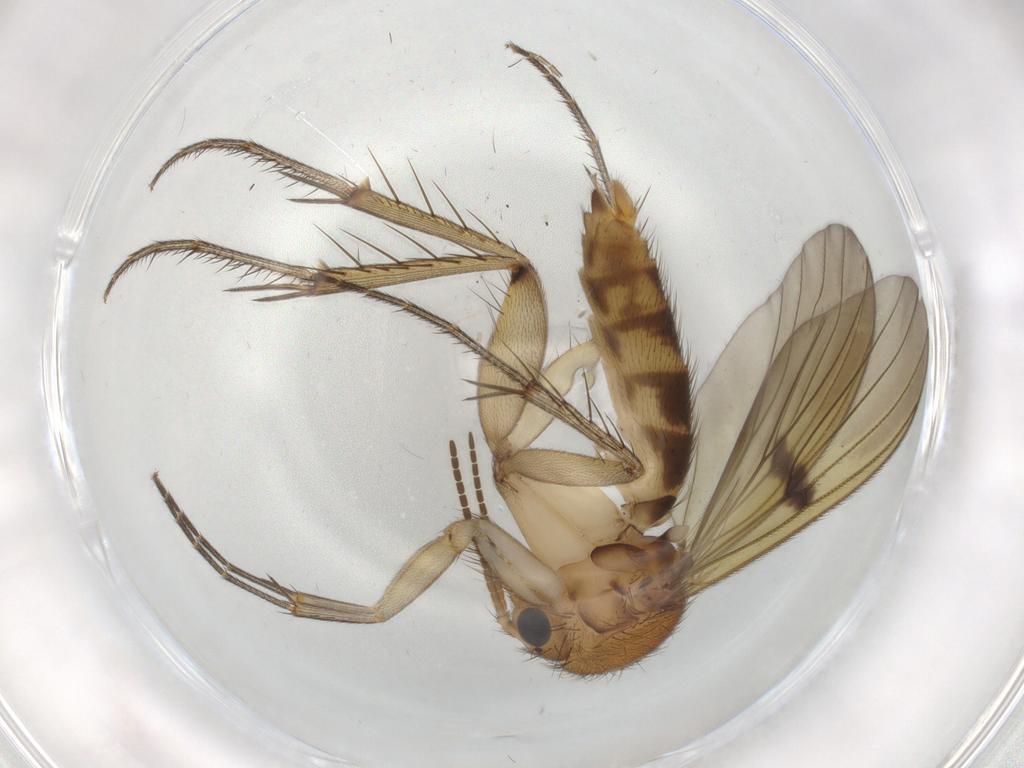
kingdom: Animalia
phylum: Arthropoda
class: Insecta
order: Diptera
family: Mycetophilidae
